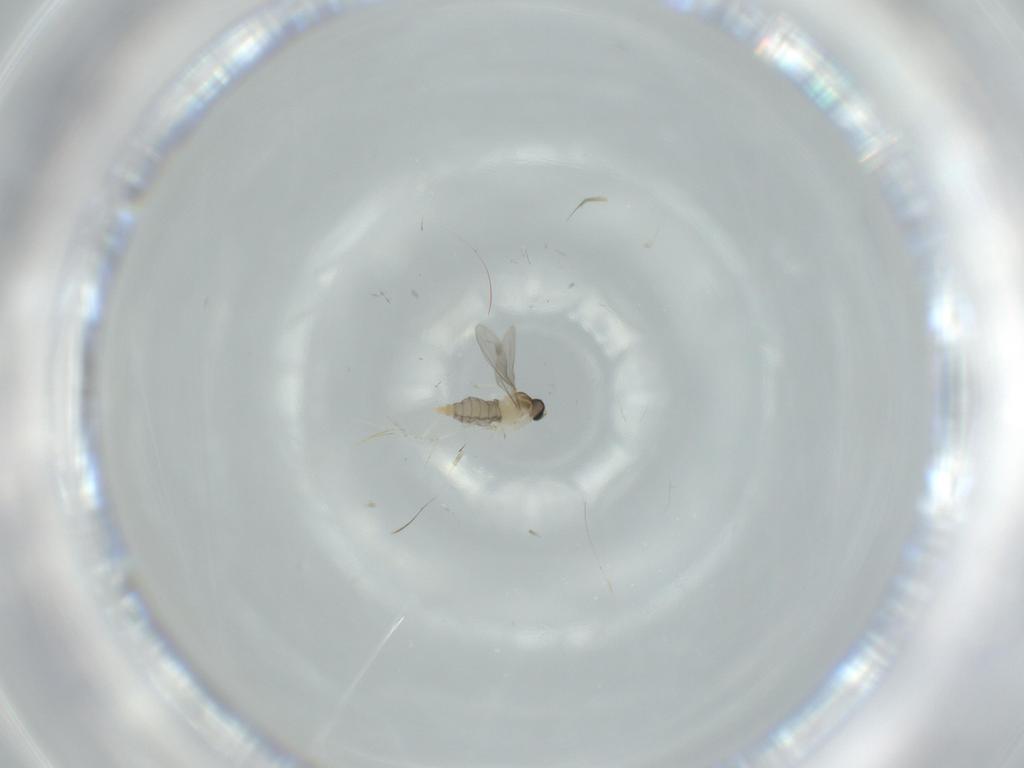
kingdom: Animalia
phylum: Arthropoda
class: Insecta
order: Diptera
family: Cecidomyiidae
